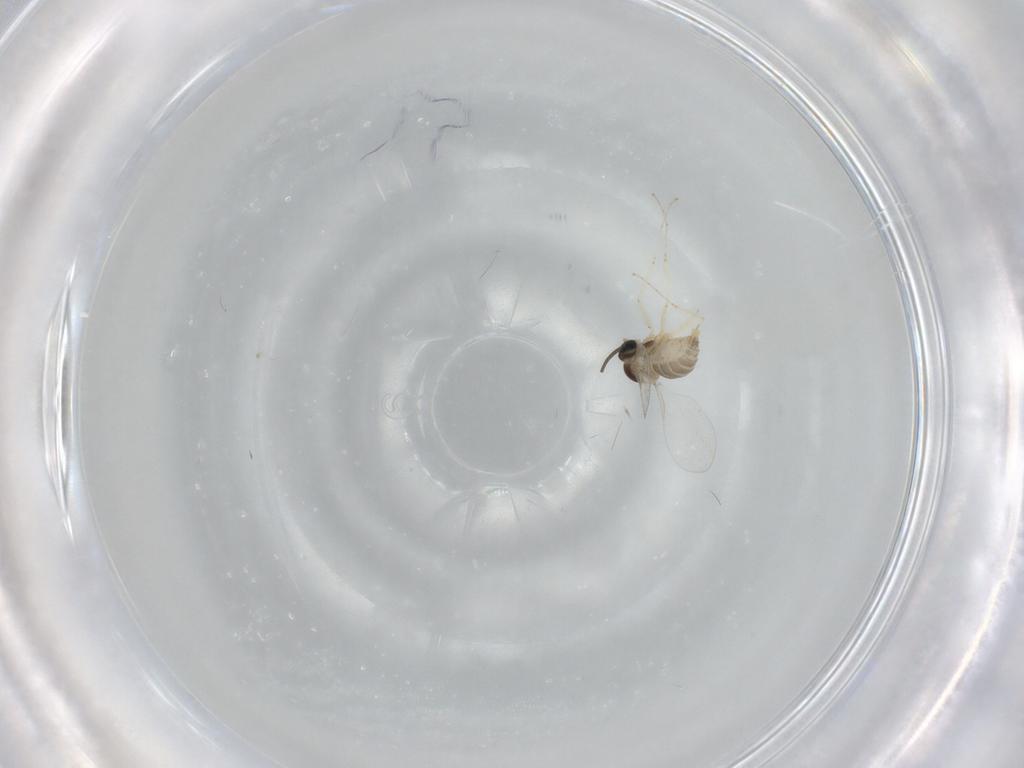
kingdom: Animalia
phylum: Arthropoda
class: Insecta
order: Diptera
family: Cecidomyiidae
